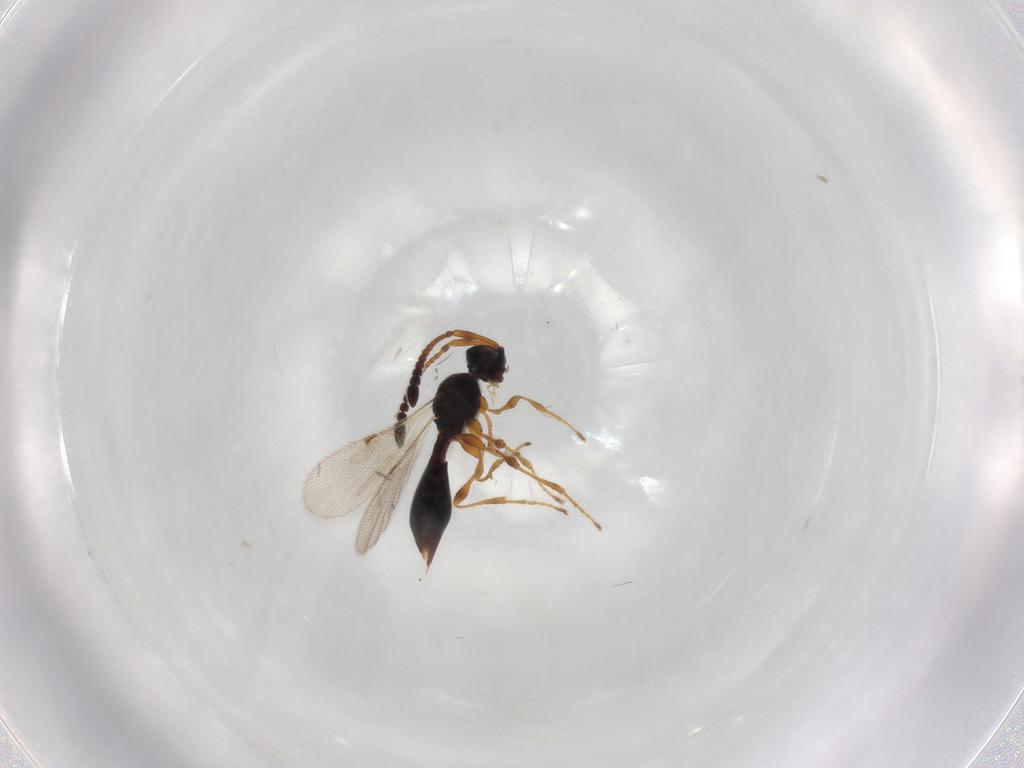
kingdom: Animalia
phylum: Arthropoda
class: Insecta
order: Hymenoptera
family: Diapriidae
